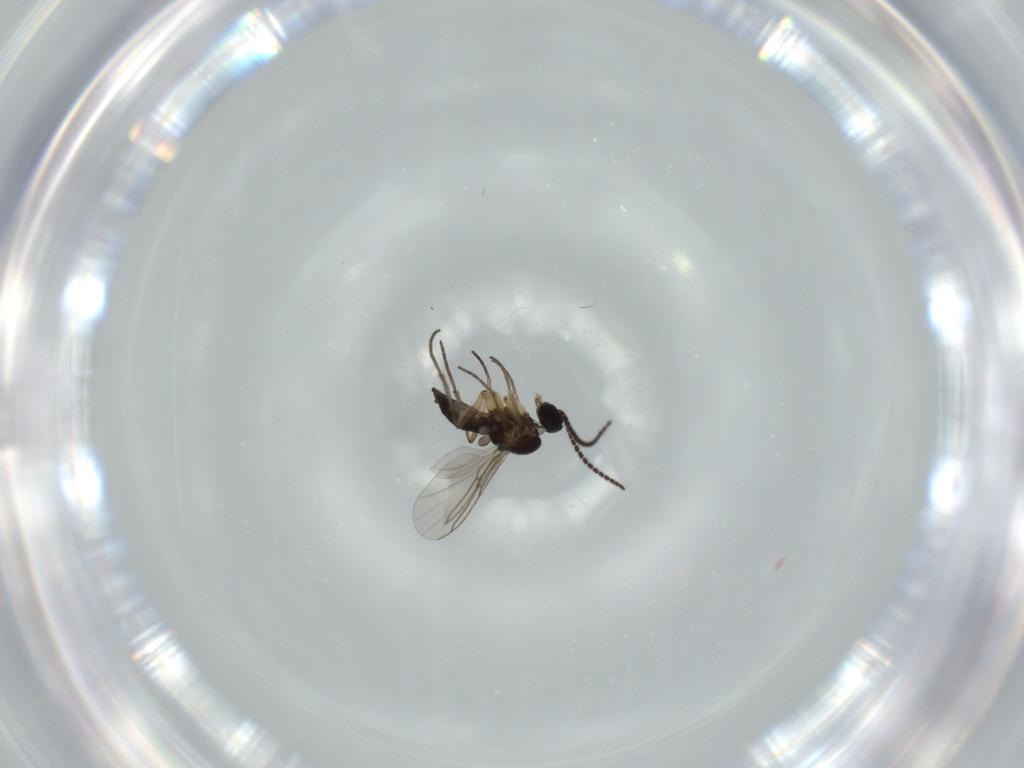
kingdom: Animalia
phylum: Arthropoda
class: Insecta
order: Diptera
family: Sciaridae
